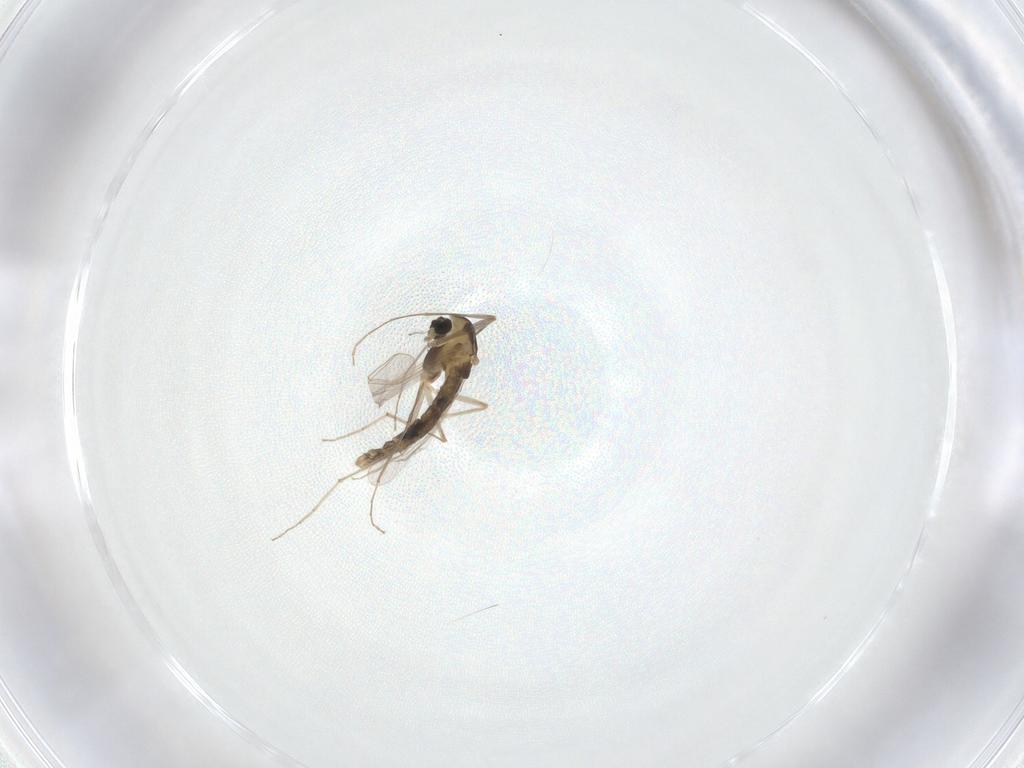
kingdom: Animalia
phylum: Arthropoda
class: Insecta
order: Diptera
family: Chironomidae
